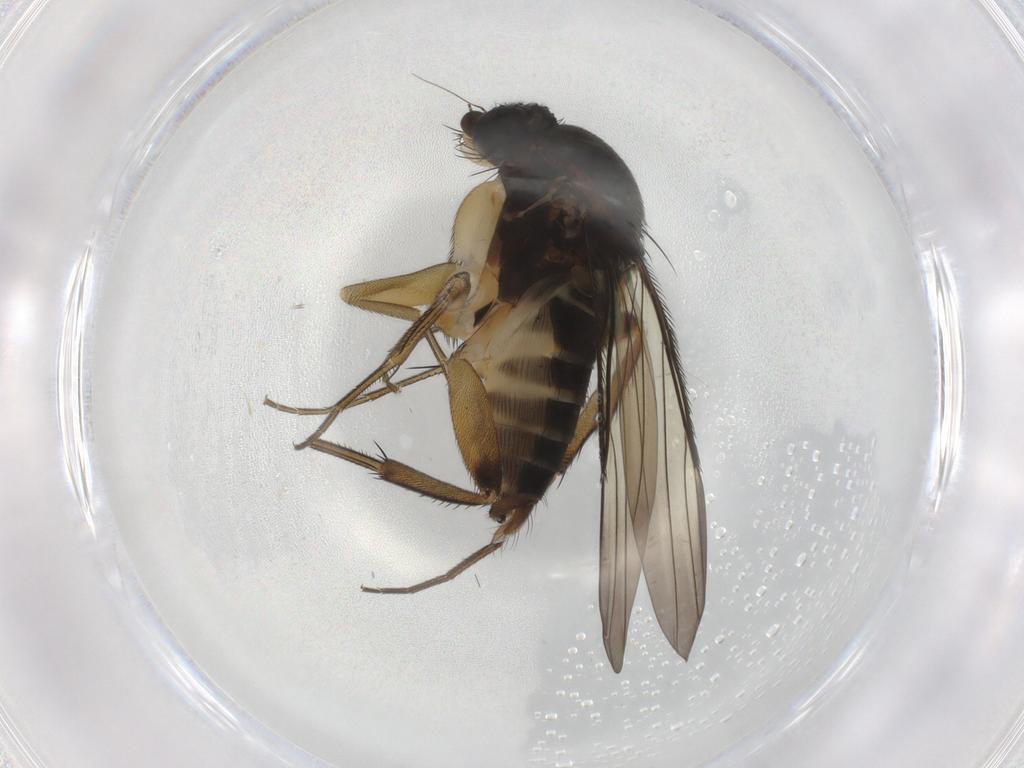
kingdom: Animalia
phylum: Arthropoda
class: Insecta
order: Diptera
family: Phoridae
